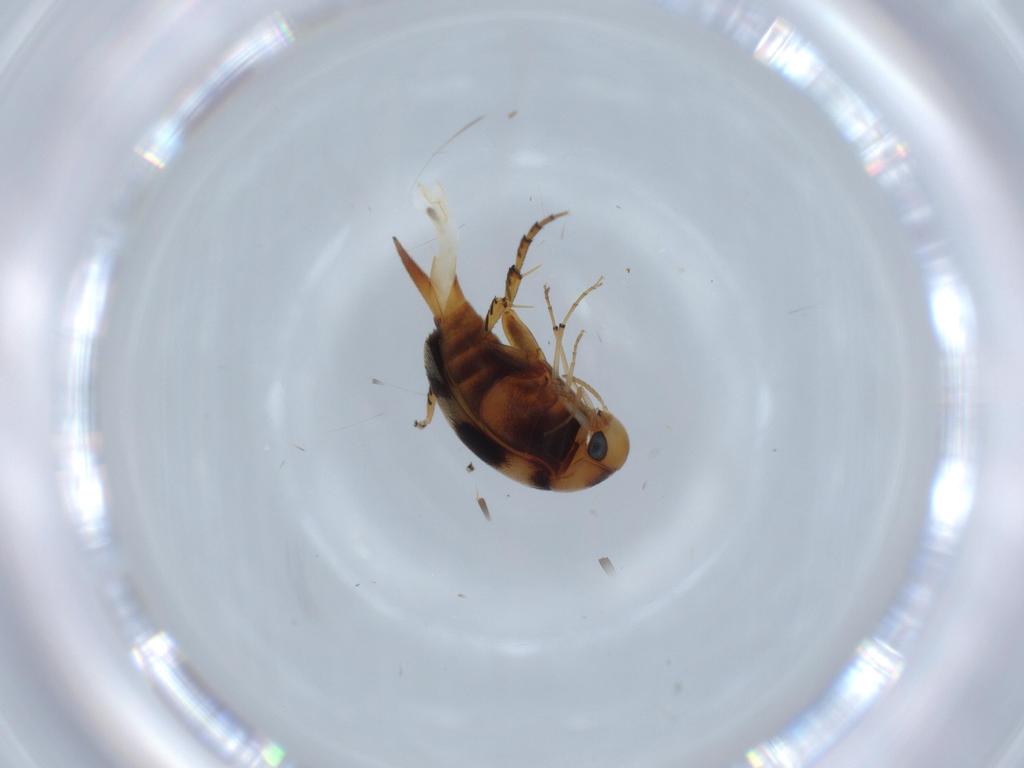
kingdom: Animalia
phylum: Arthropoda
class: Insecta
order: Coleoptera
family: Mordellidae
